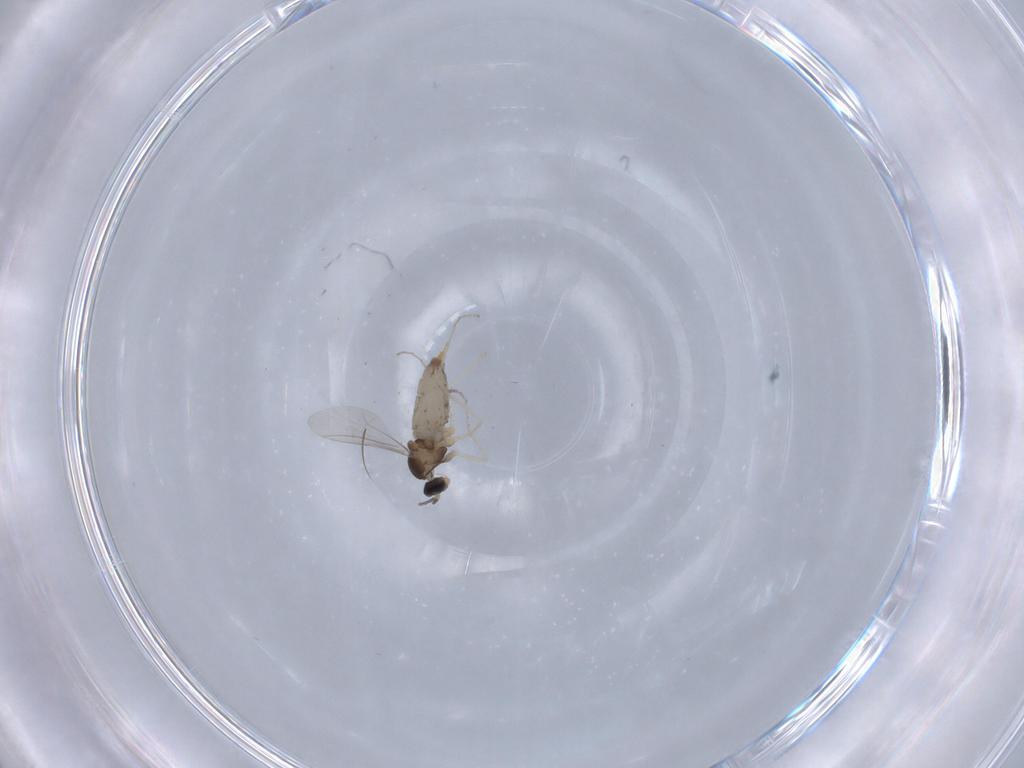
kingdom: Animalia
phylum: Arthropoda
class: Insecta
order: Diptera
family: Cecidomyiidae
